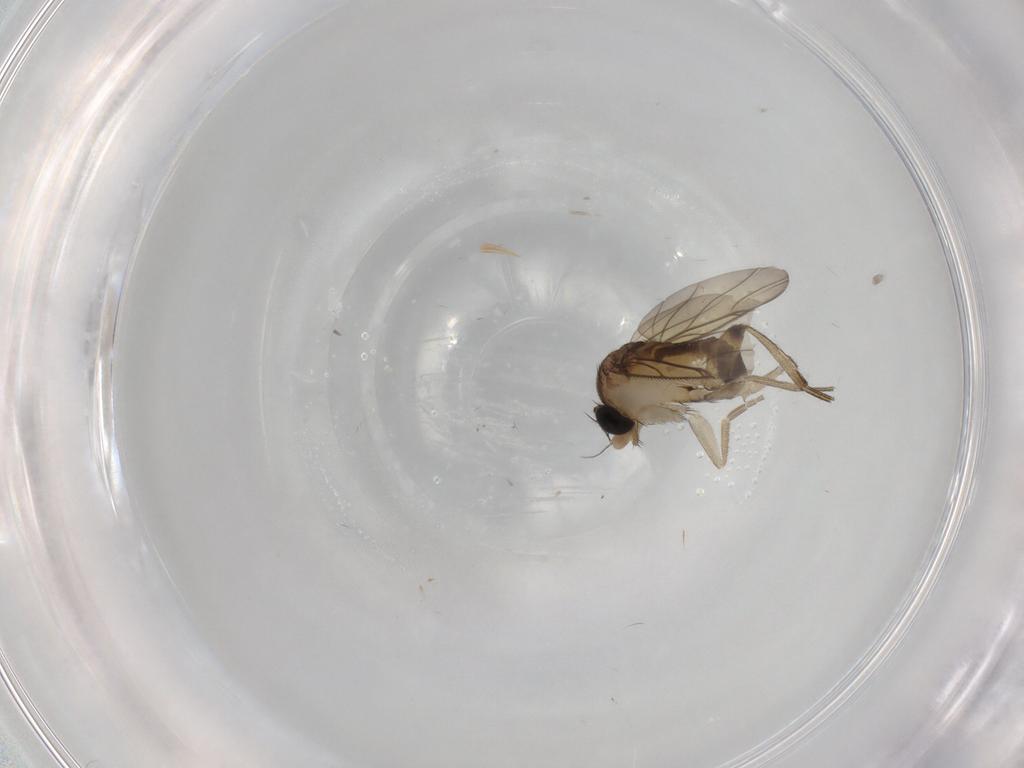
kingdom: Animalia
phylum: Arthropoda
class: Insecta
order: Diptera
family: Phoridae
